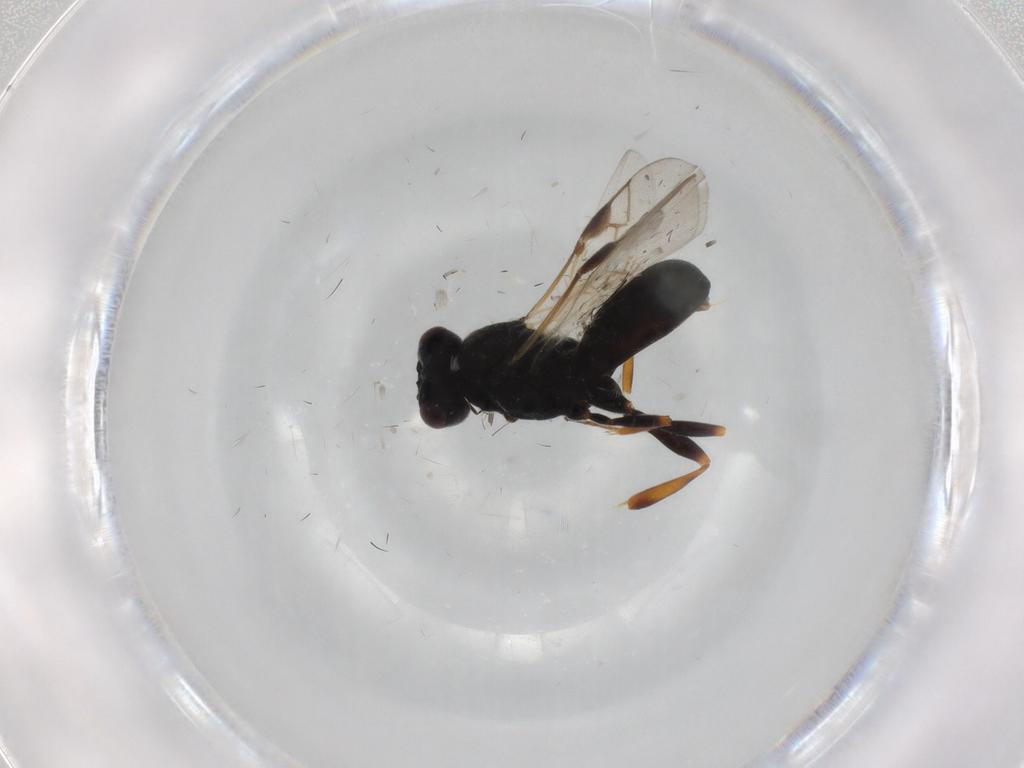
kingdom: Animalia
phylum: Arthropoda
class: Insecta
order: Hymenoptera
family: Braconidae
